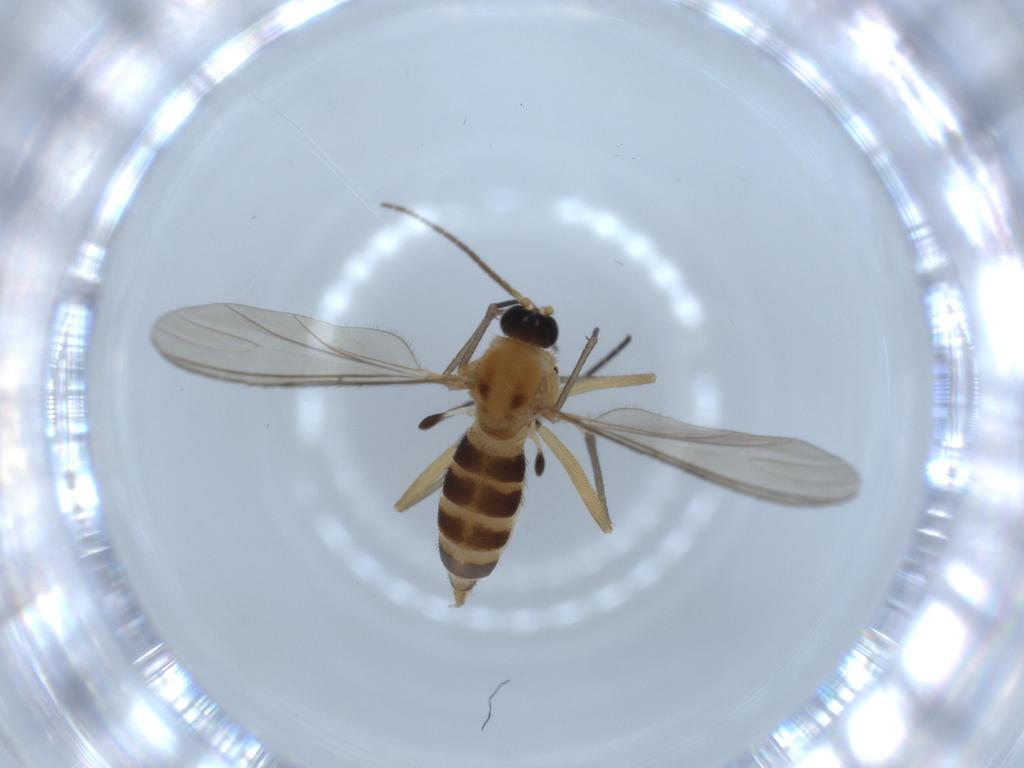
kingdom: Animalia
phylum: Arthropoda
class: Insecta
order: Diptera
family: Sciaridae
